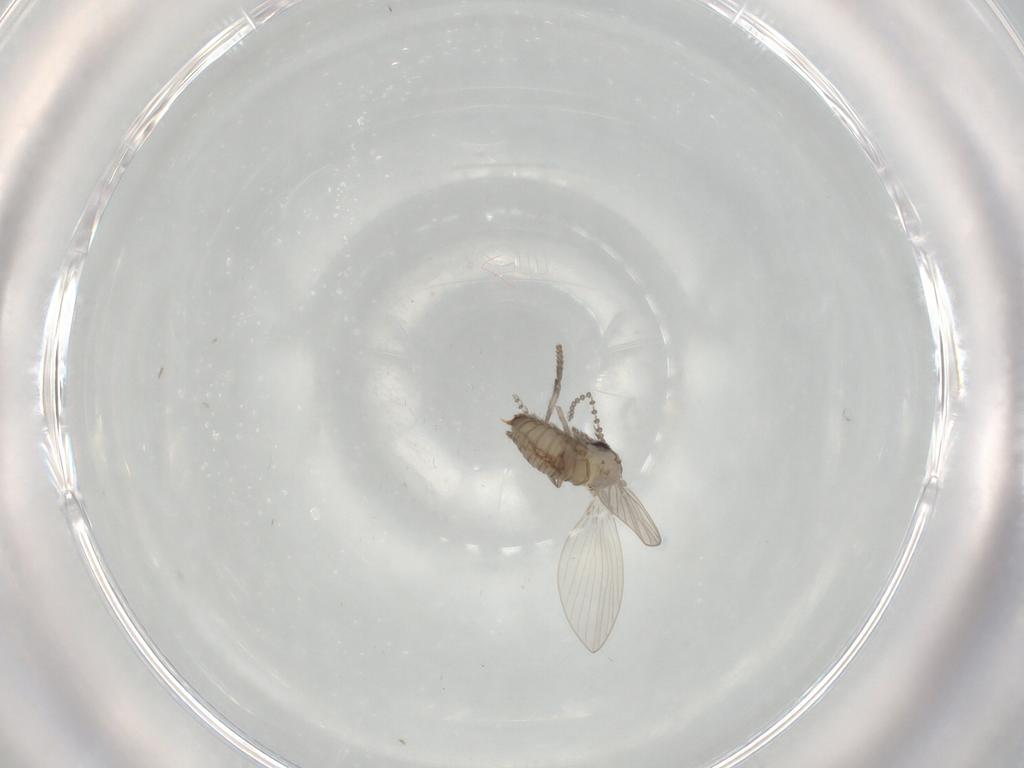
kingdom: Animalia
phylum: Arthropoda
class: Insecta
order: Diptera
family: Psychodidae
